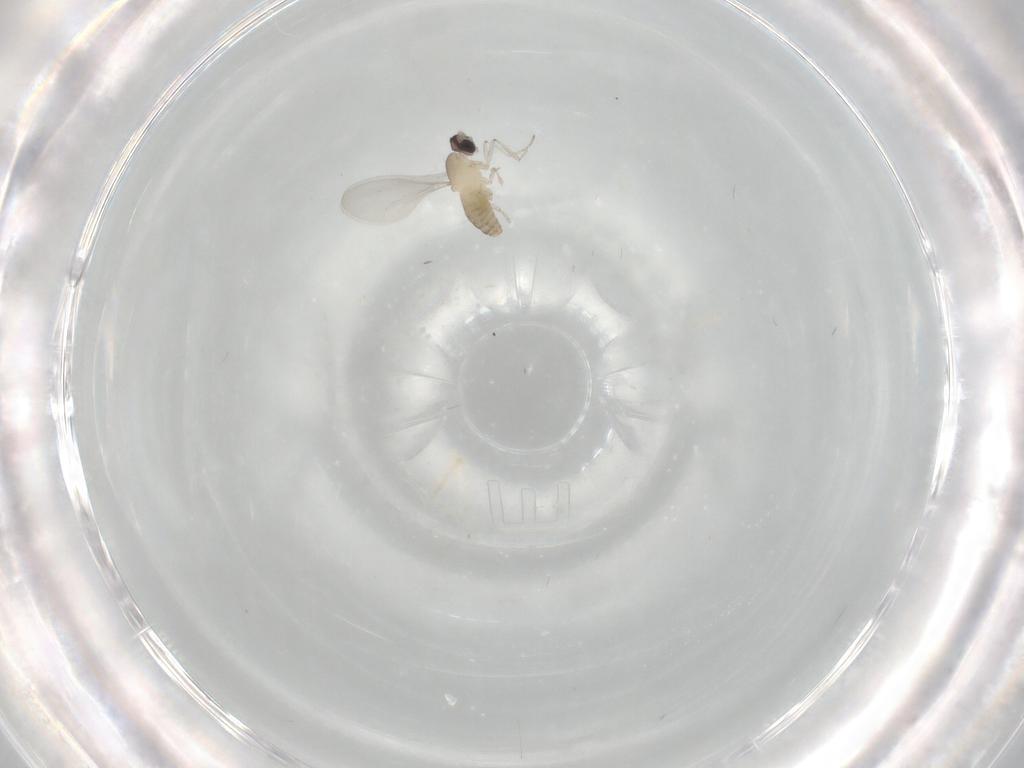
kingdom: Animalia
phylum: Arthropoda
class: Insecta
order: Diptera
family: Cecidomyiidae
